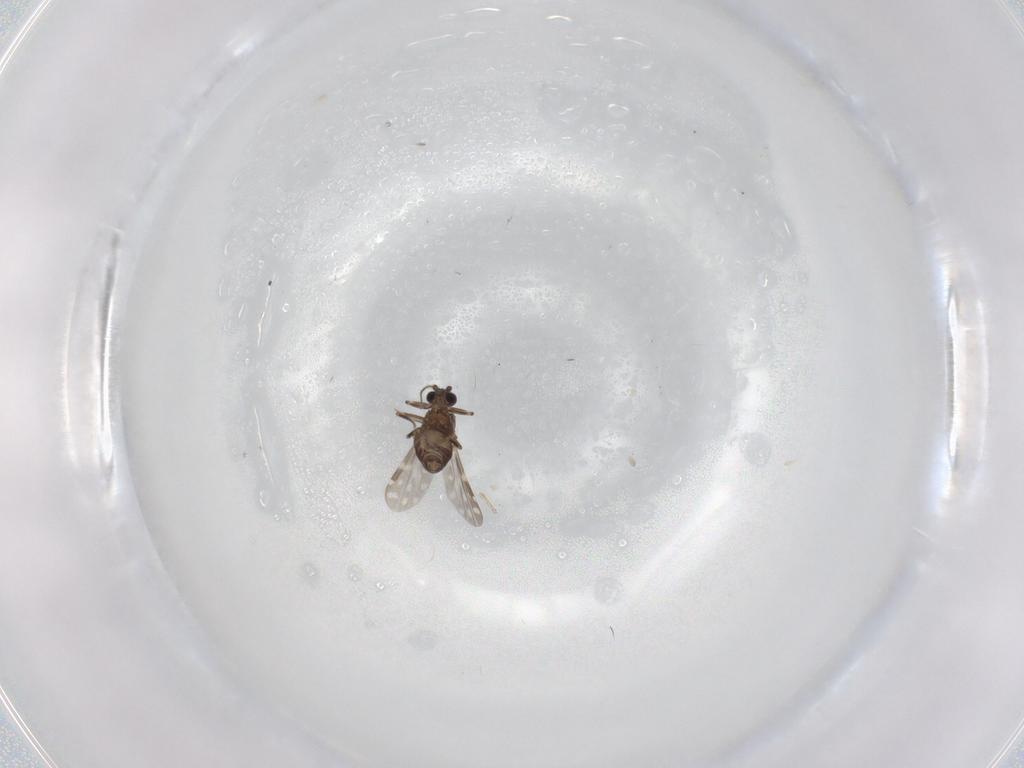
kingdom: Animalia
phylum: Arthropoda
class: Insecta
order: Diptera
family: Ceratopogonidae
